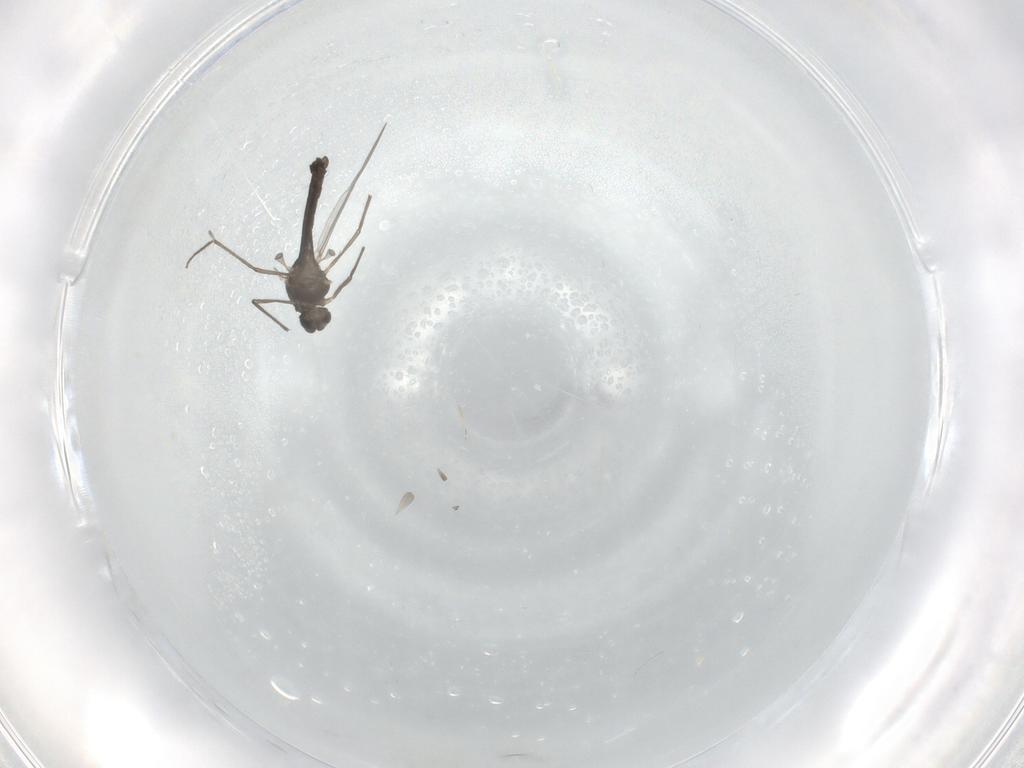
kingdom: Animalia
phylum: Arthropoda
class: Insecta
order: Diptera
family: Chironomidae
